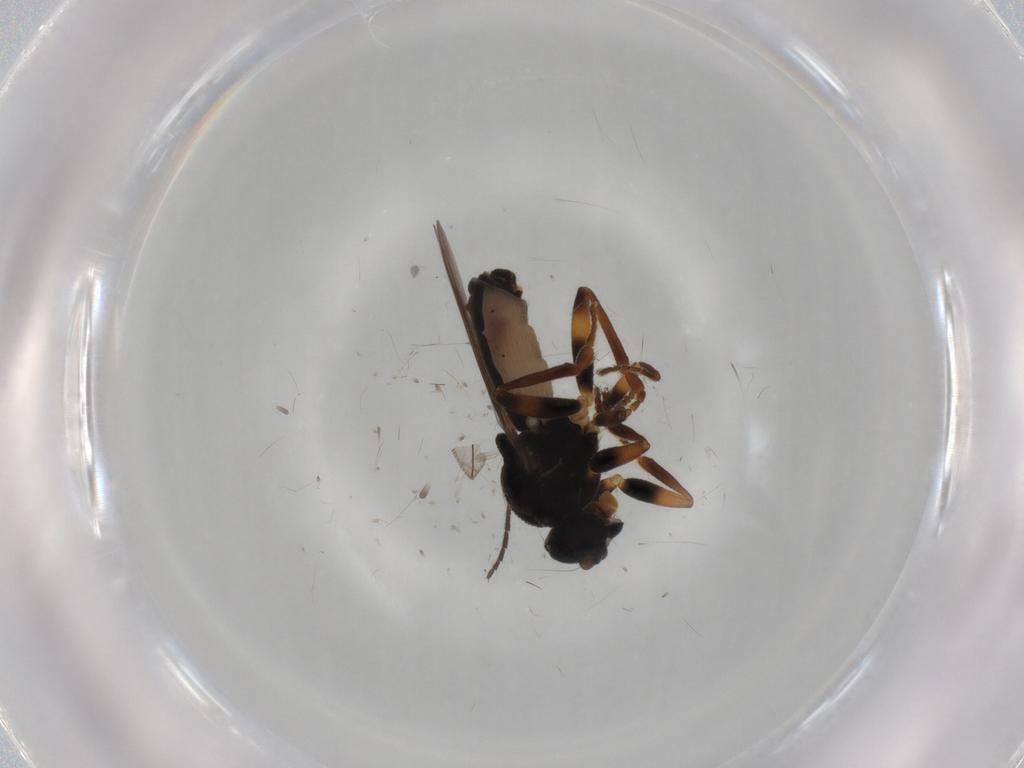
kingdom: Animalia
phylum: Arthropoda
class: Insecta
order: Diptera
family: Sphaeroceridae
